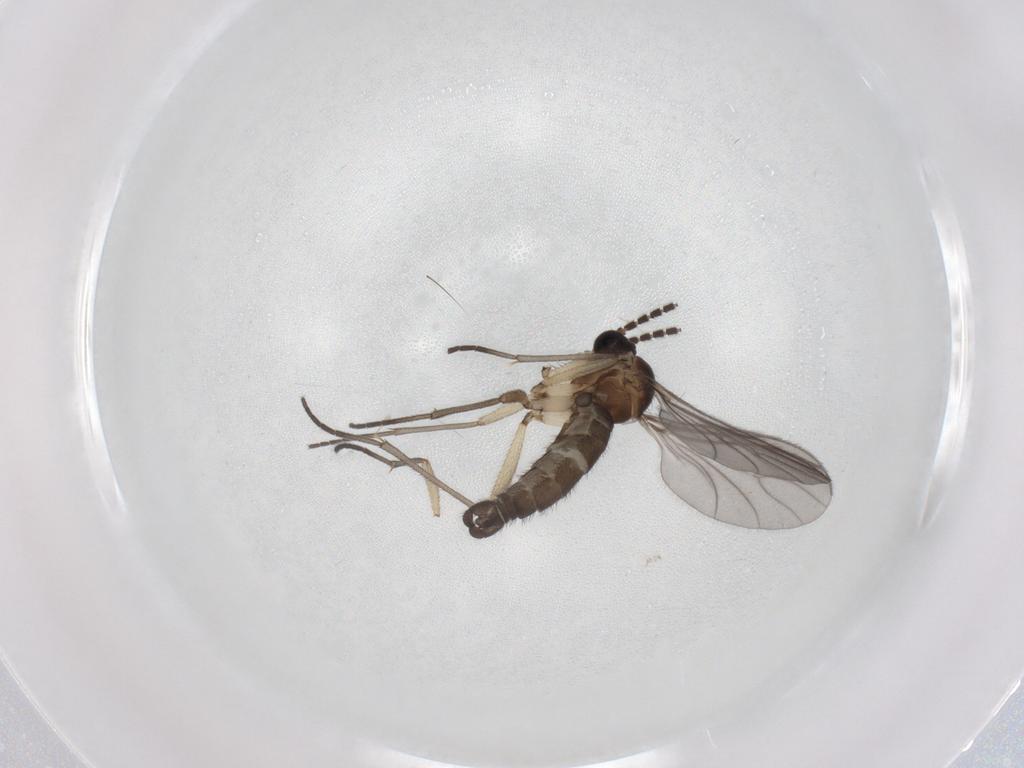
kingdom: Animalia
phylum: Arthropoda
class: Insecta
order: Diptera
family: Sciaridae
